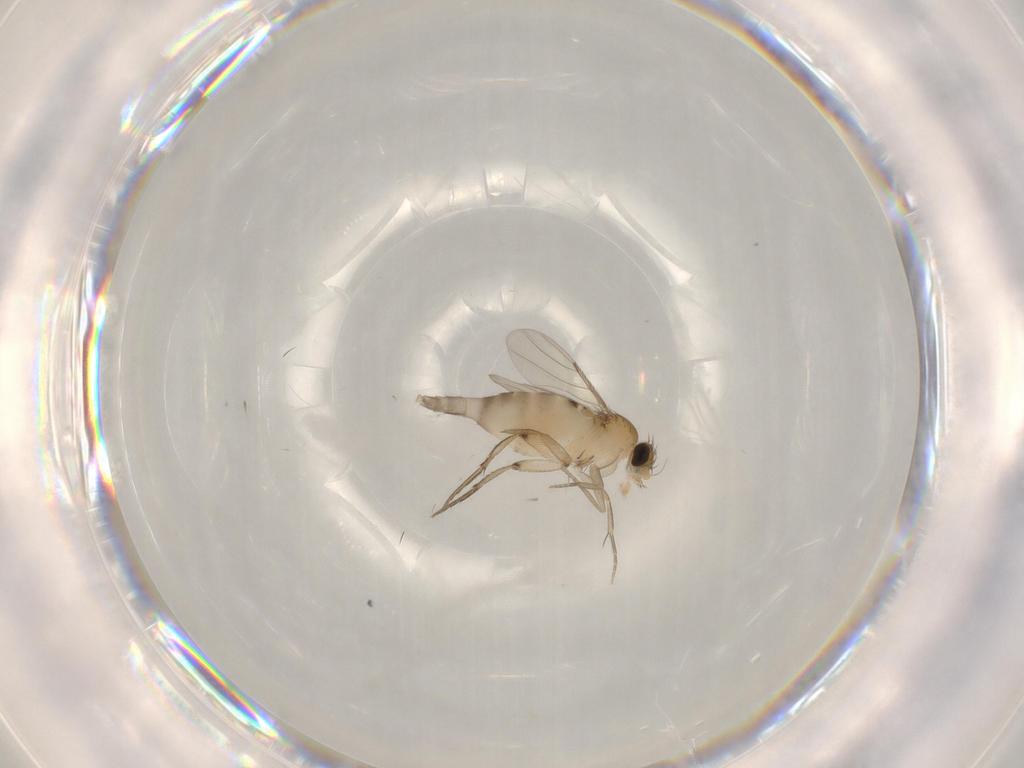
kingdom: Animalia
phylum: Arthropoda
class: Insecta
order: Diptera
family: Phoridae
